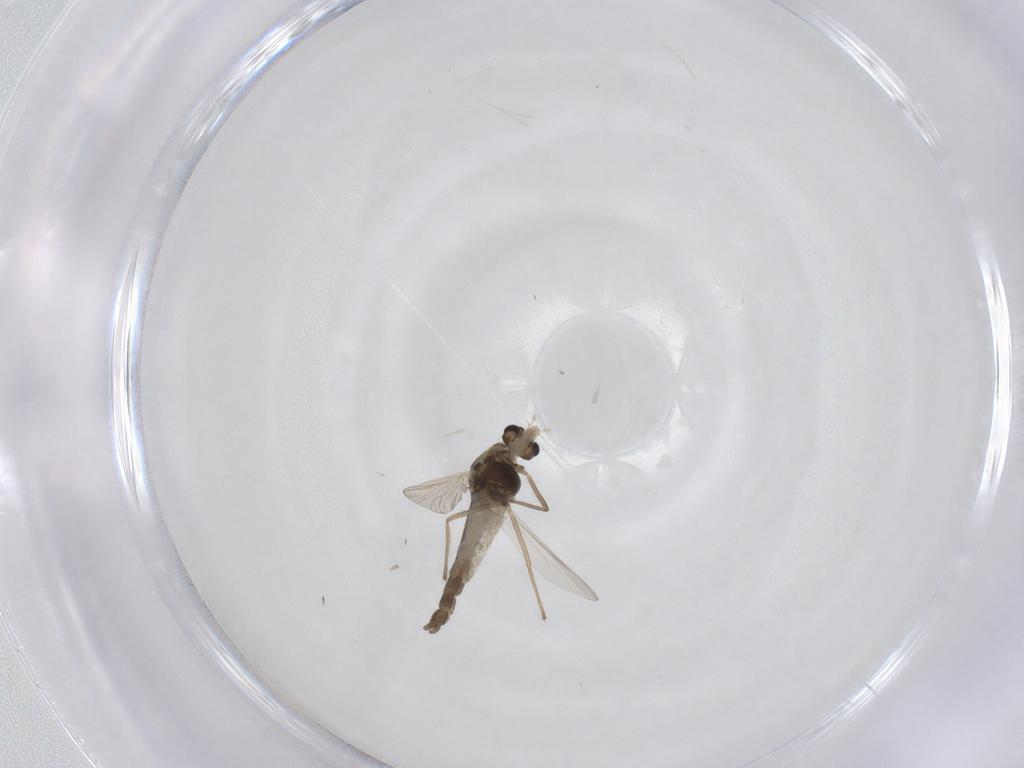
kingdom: Animalia
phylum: Arthropoda
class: Insecta
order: Diptera
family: Chironomidae
